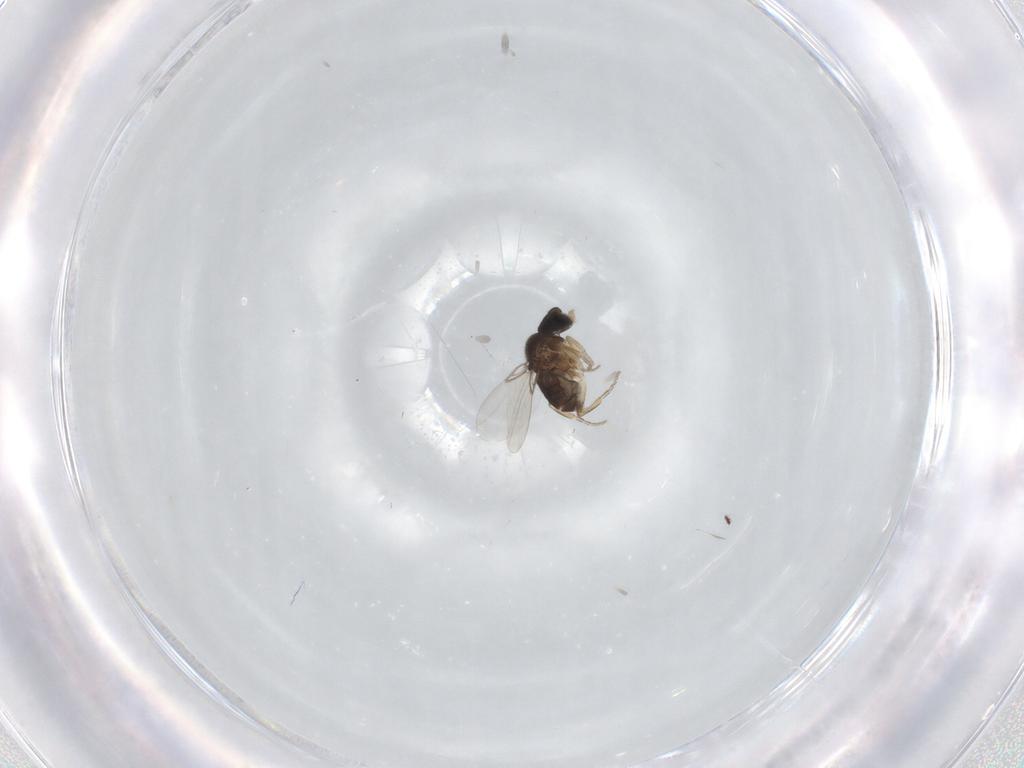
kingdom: Animalia
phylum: Arthropoda
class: Insecta
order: Diptera
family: Phoridae
